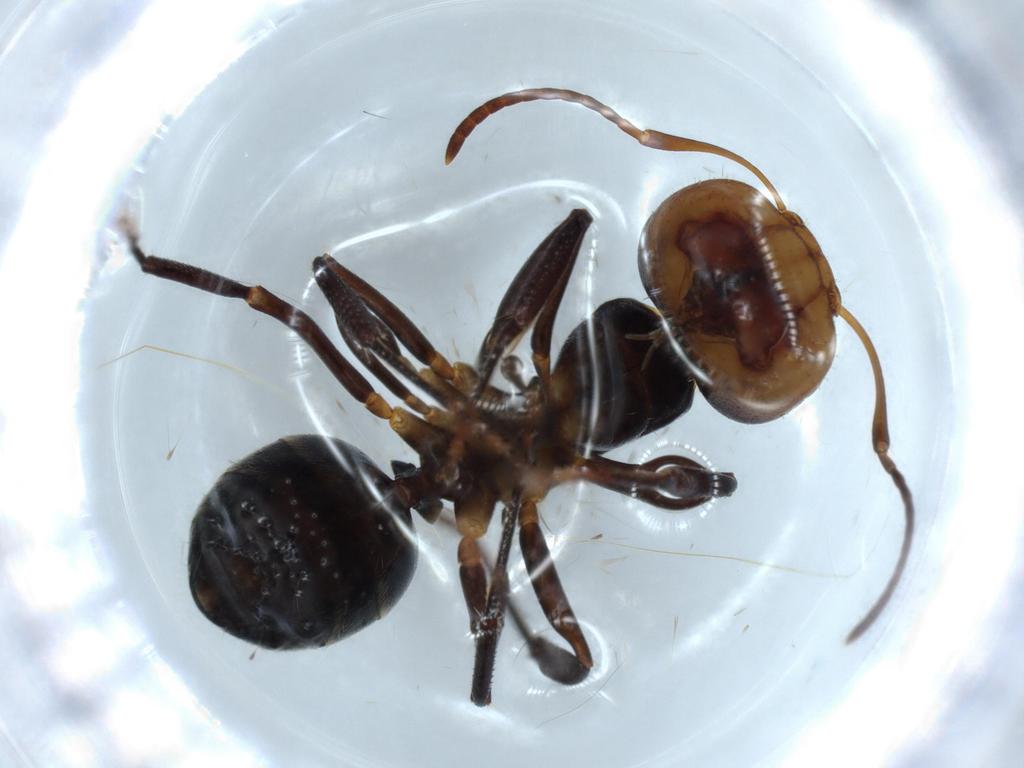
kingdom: Animalia
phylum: Arthropoda
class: Insecta
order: Hymenoptera
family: Formicidae
